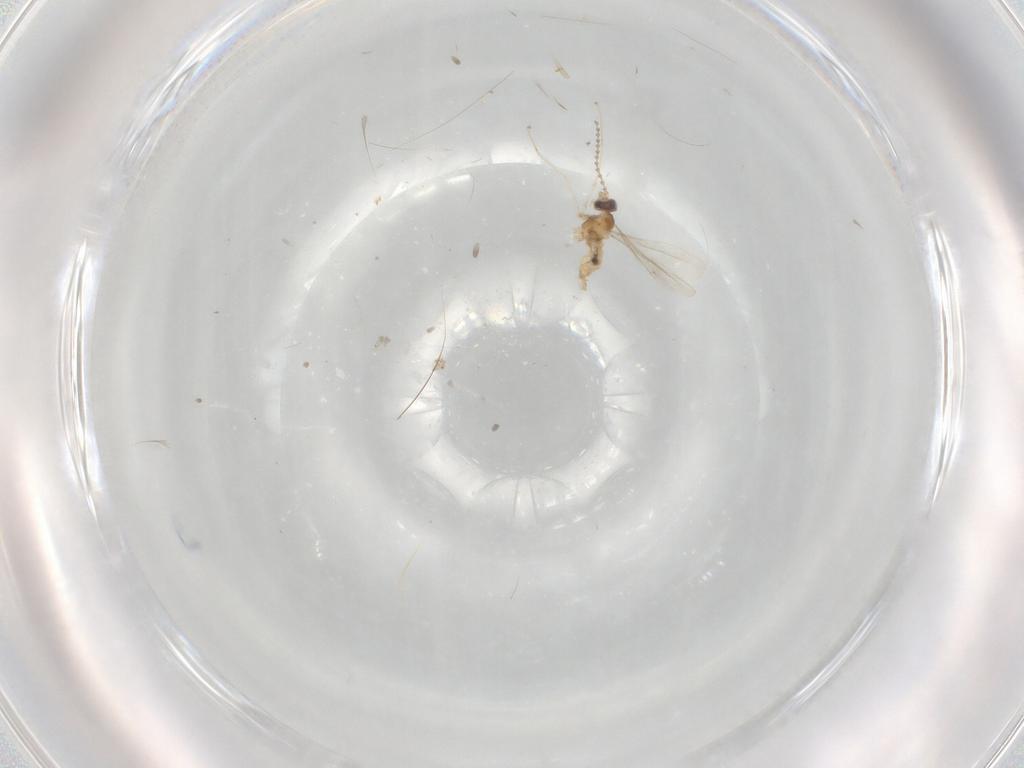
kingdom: Animalia
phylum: Arthropoda
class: Insecta
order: Diptera
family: Cecidomyiidae
